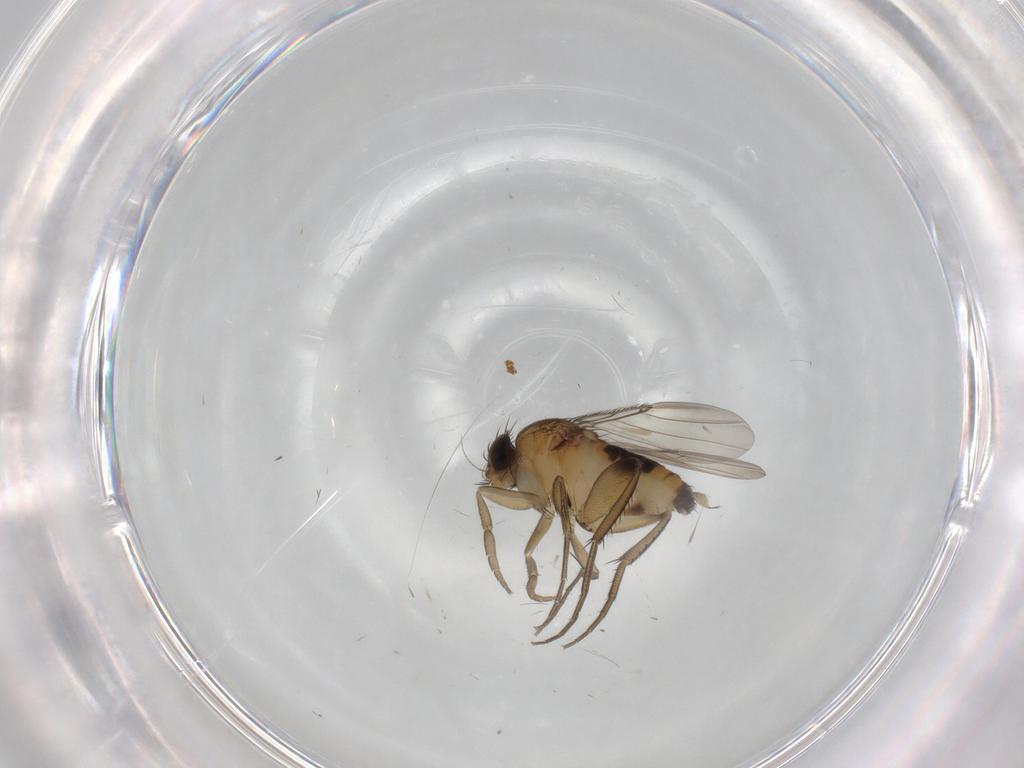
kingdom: Animalia
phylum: Arthropoda
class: Insecta
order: Diptera
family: Phoridae
